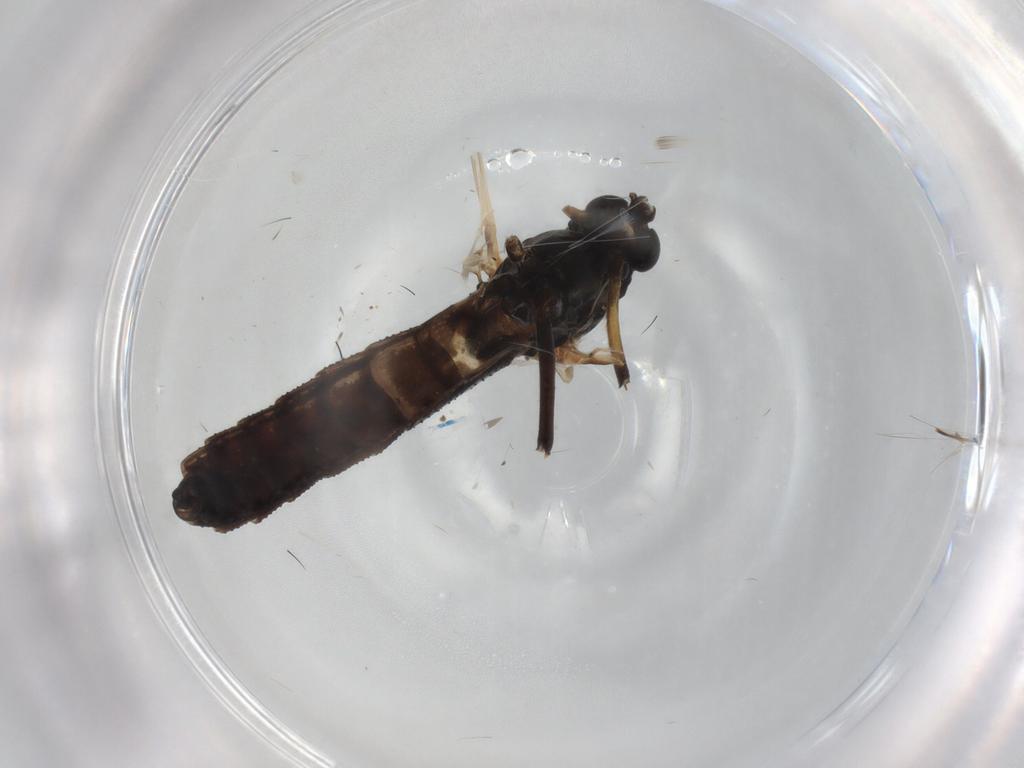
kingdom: Animalia
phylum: Arthropoda
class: Insecta
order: Diptera
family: Chironomidae
